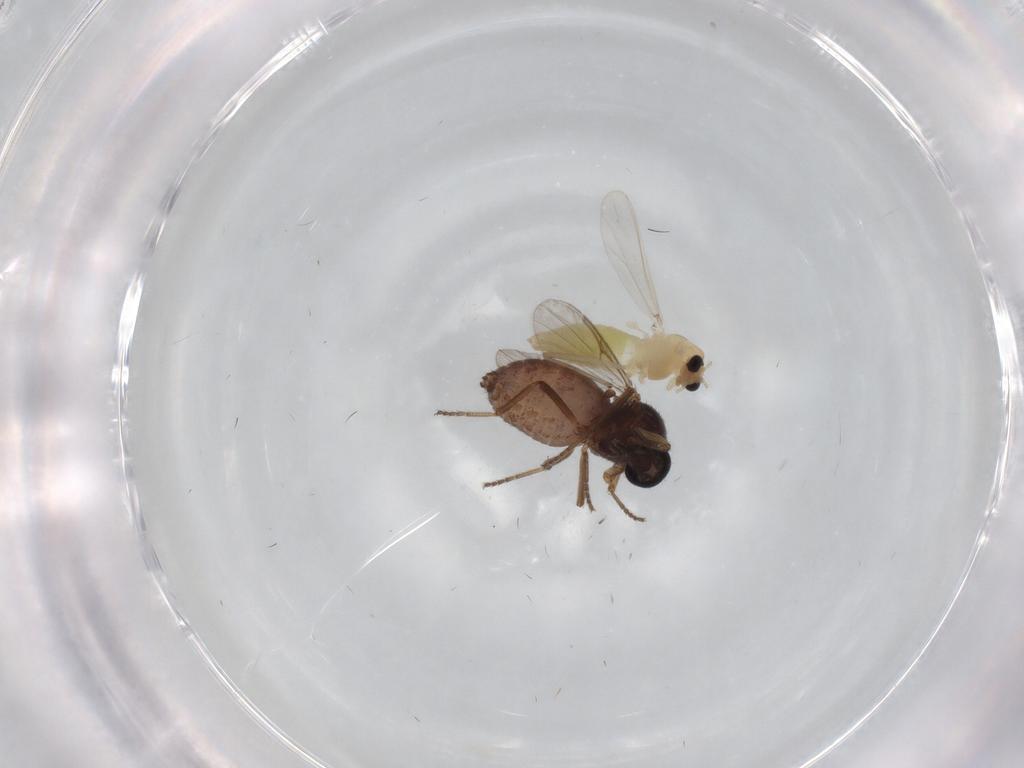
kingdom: Animalia
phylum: Arthropoda
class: Insecta
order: Diptera
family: Chironomidae
